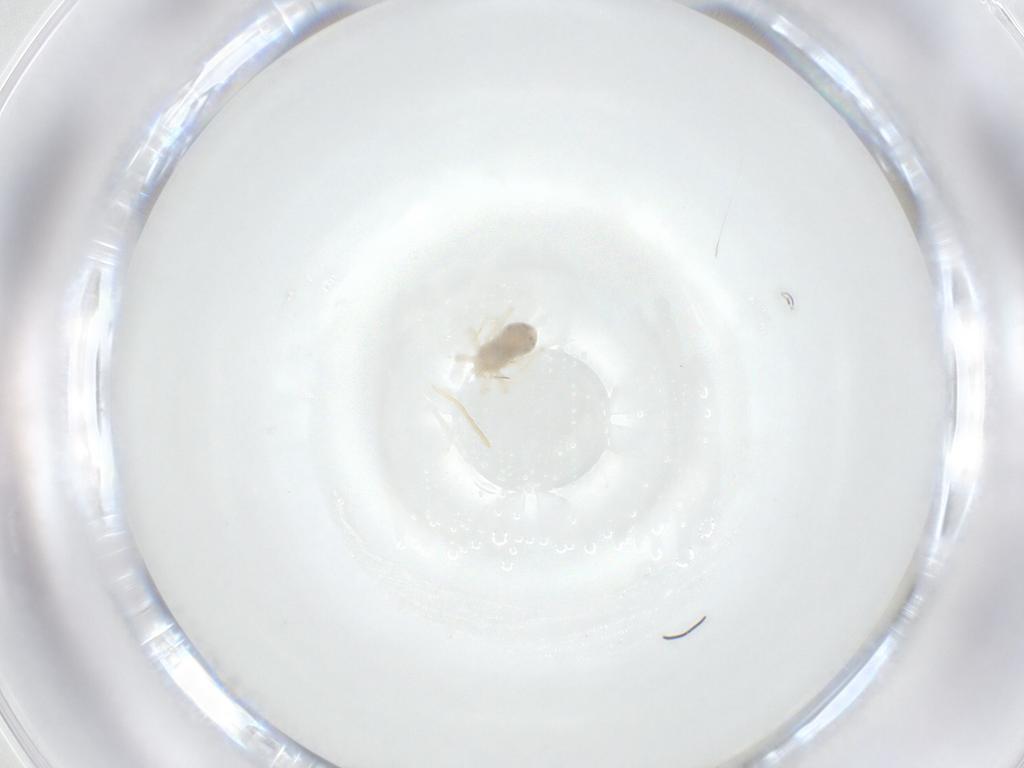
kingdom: Animalia
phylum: Arthropoda
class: Arachnida
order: Trombidiformes
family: Anystidae
